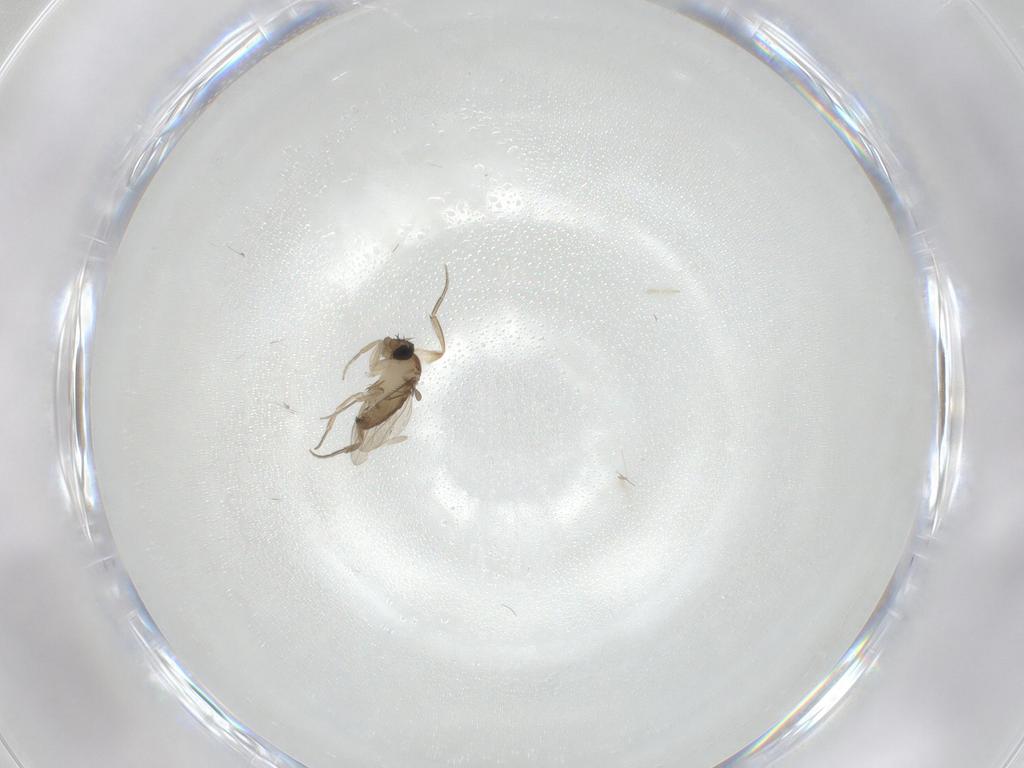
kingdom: Animalia
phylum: Arthropoda
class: Insecta
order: Diptera
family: Phoridae
